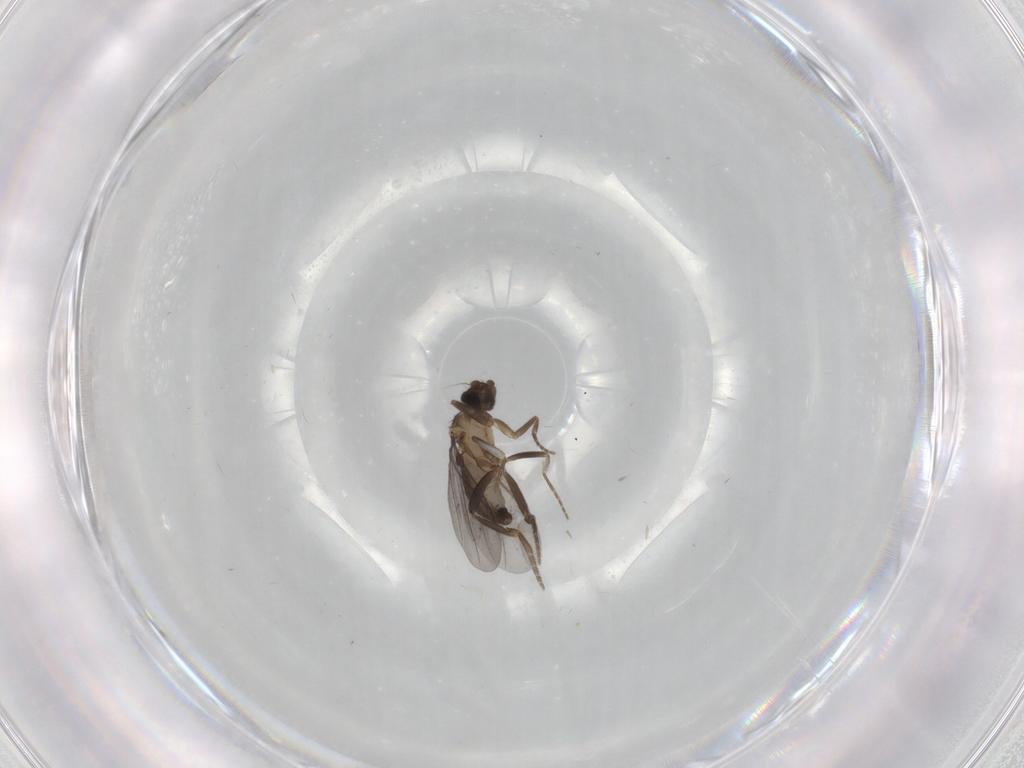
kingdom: Animalia
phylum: Arthropoda
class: Insecta
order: Diptera
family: Phoridae
